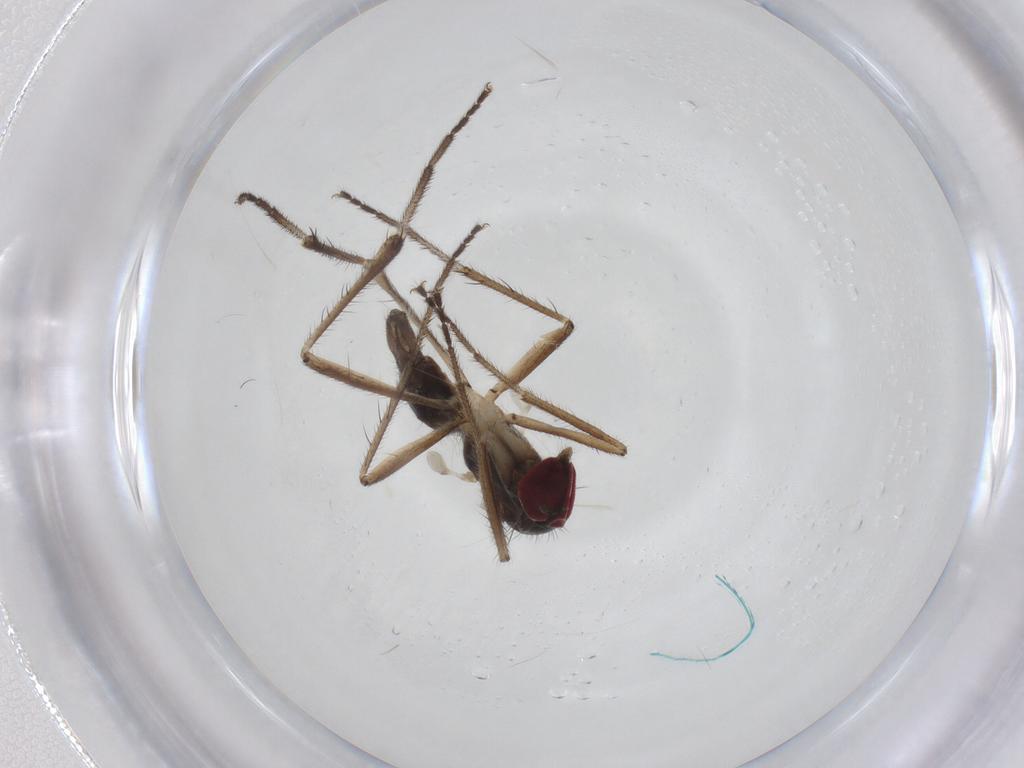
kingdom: Animalia
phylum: Arthropoda
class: Insecta
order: Diptera
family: Hybotidae
